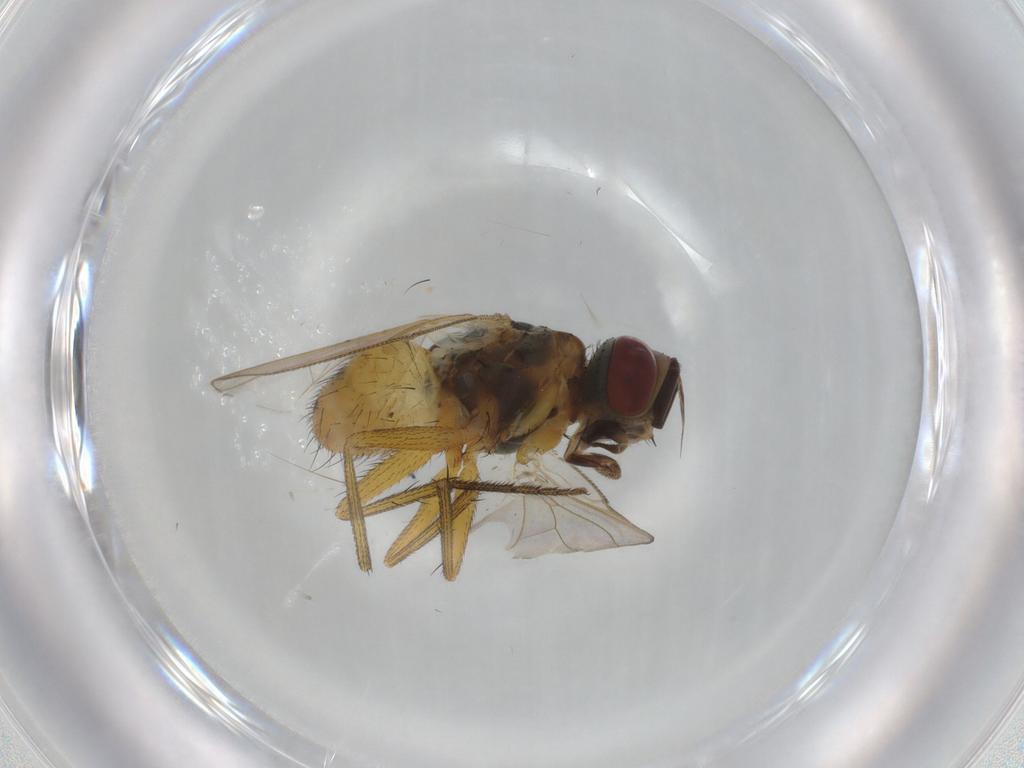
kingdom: Animalia
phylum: Arthropoda
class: Insecta
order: Diptera
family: Muscidae
